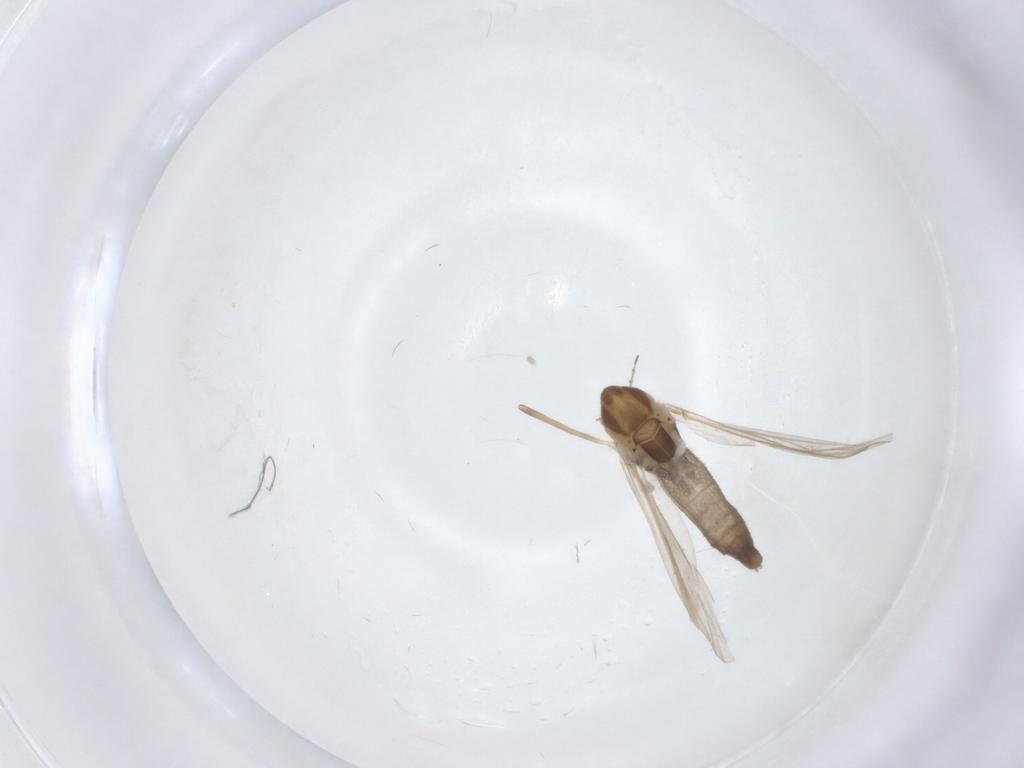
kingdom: Animalia
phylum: Arthropoda
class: Insecta
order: Diptera
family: Chironomidae
